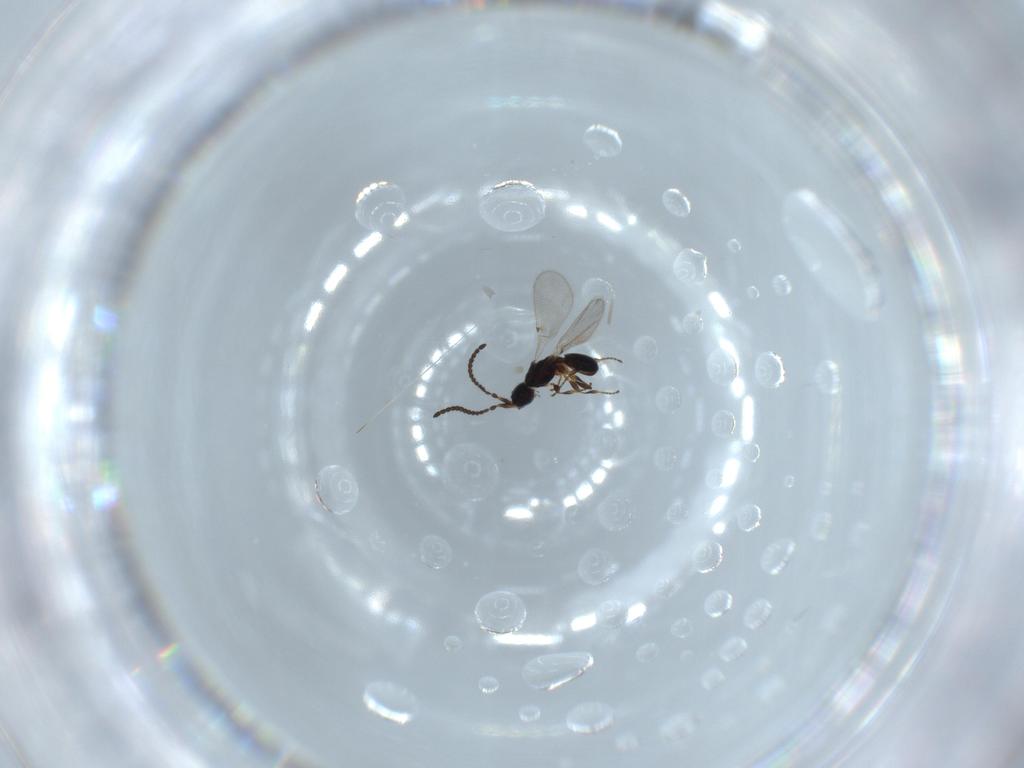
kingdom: Animalia
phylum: Arthropoda
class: Insecta
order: Hymenoptera
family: Diapriidae
